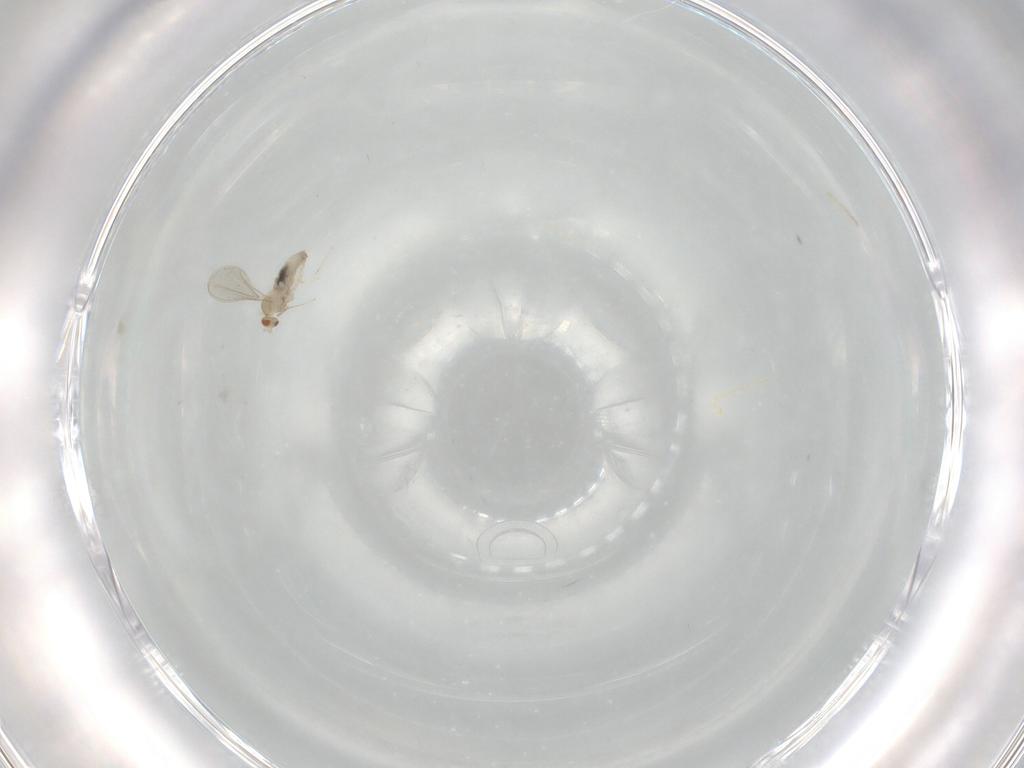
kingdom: Animalia
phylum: Arthropoda
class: Insecta
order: Diptera
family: Cecidomyiidae
